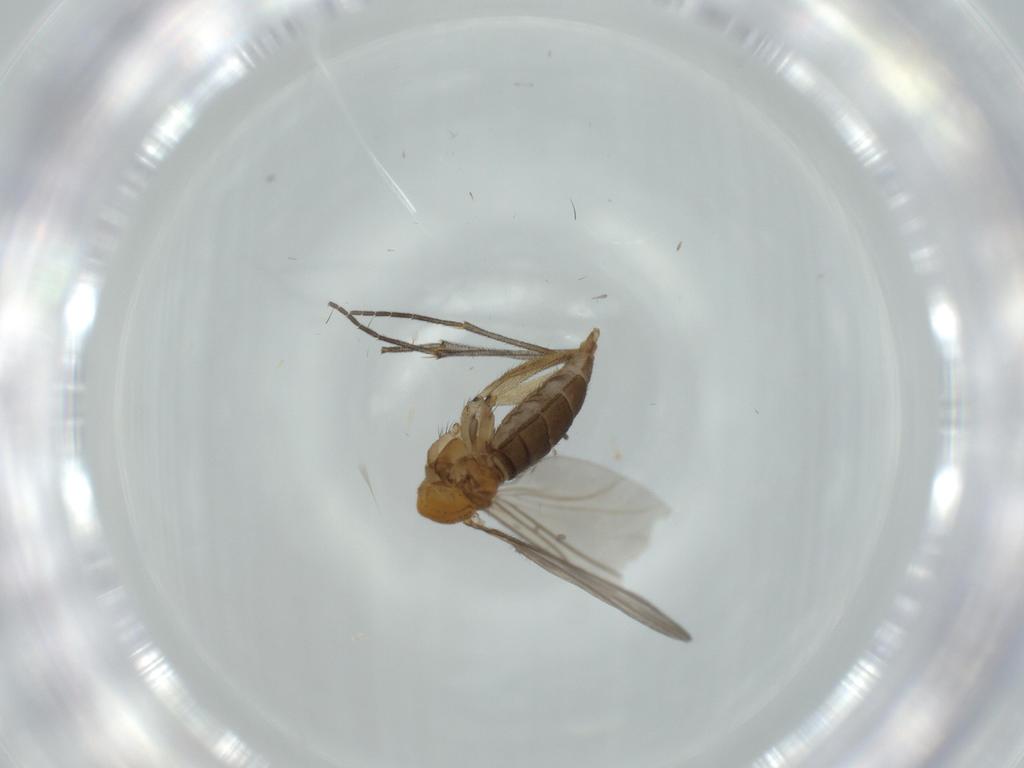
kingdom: Animalia
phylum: Arthropoda
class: Insecta
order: Diptera
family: Sciaridae
